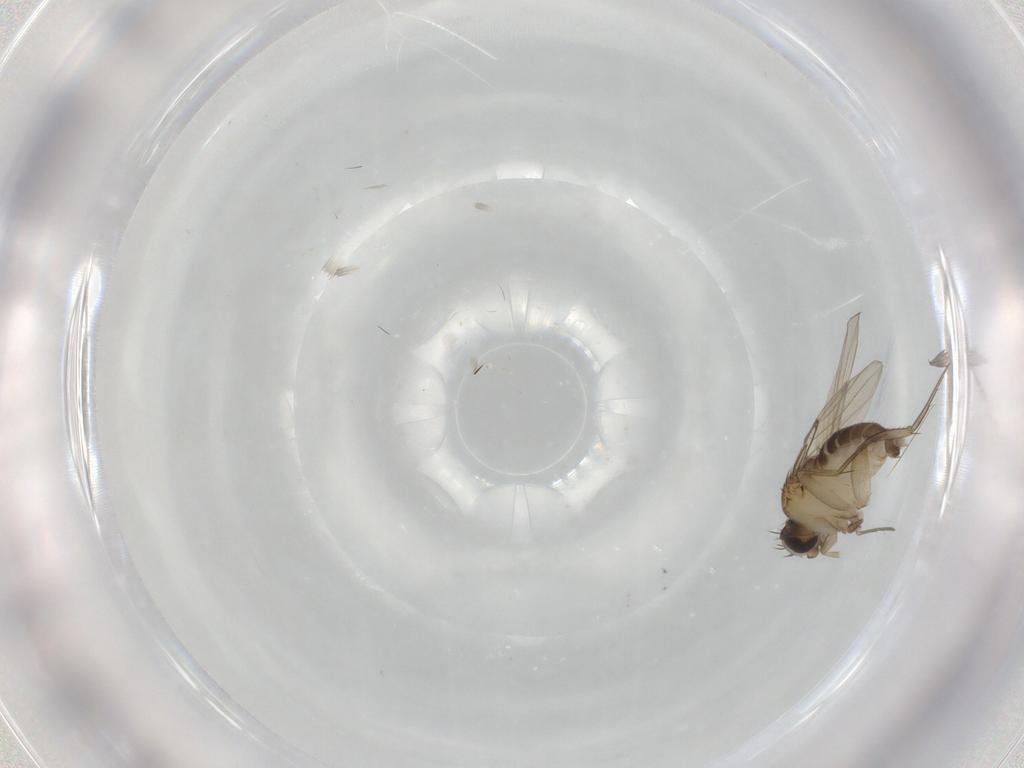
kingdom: Animalia
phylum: Arthropoda
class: Insecta
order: Diptera
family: Phoridae
